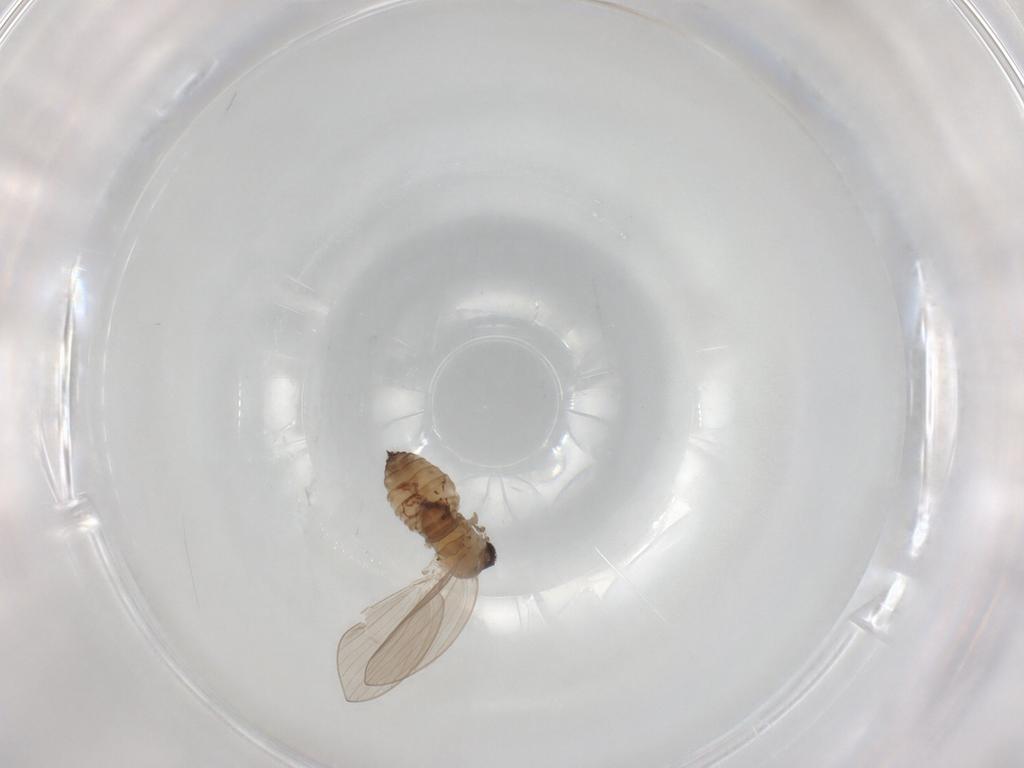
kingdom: Animalia
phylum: Arthropoda
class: Insecta
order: Diptera
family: Psychodidae
